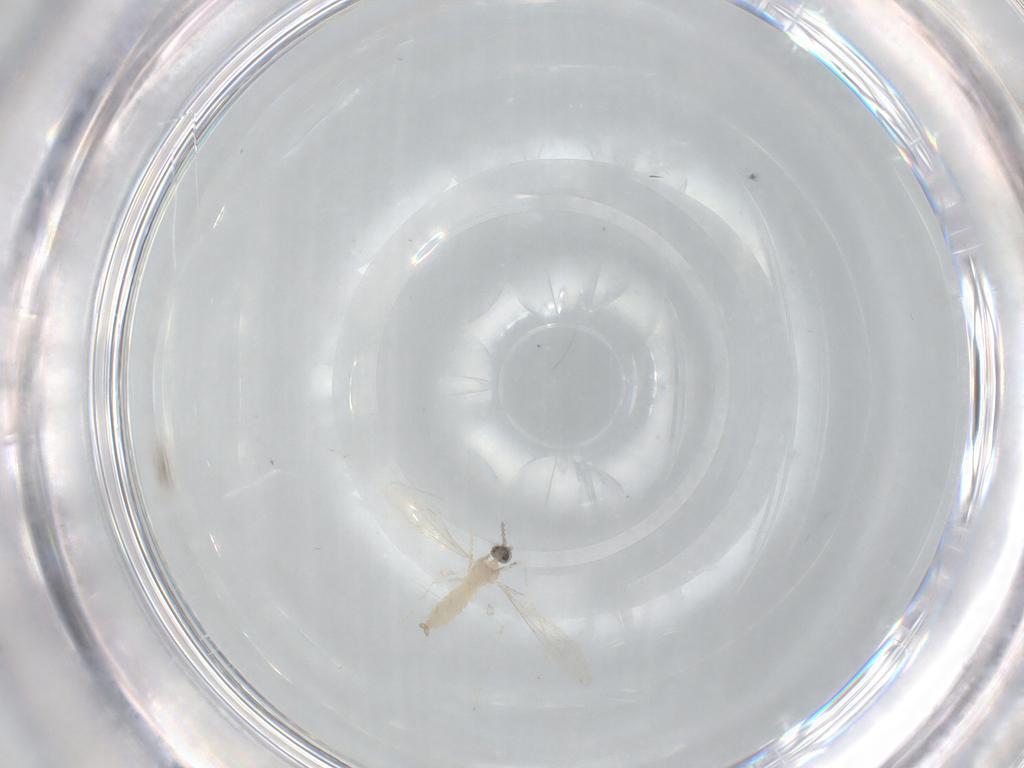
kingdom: Animalia
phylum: Arthropoda
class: Insecta
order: Diptera
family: Cecidomyiidae
